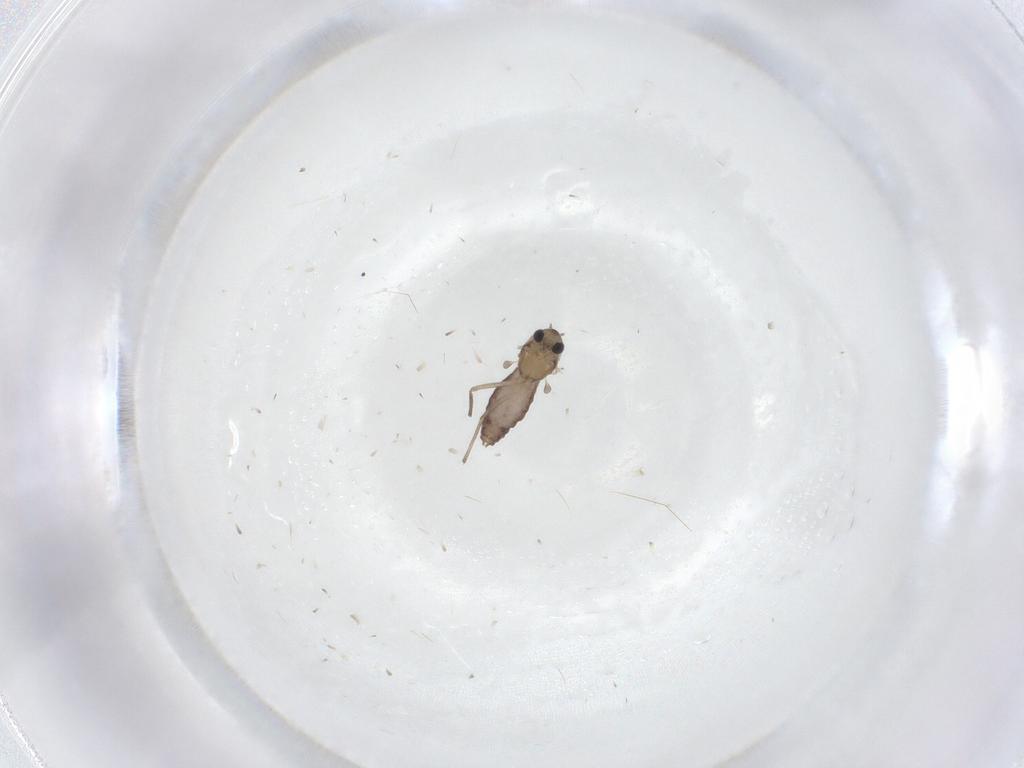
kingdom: Animalia
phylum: Arthropoda
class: Insecta
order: Diptera
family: Chironomidae
